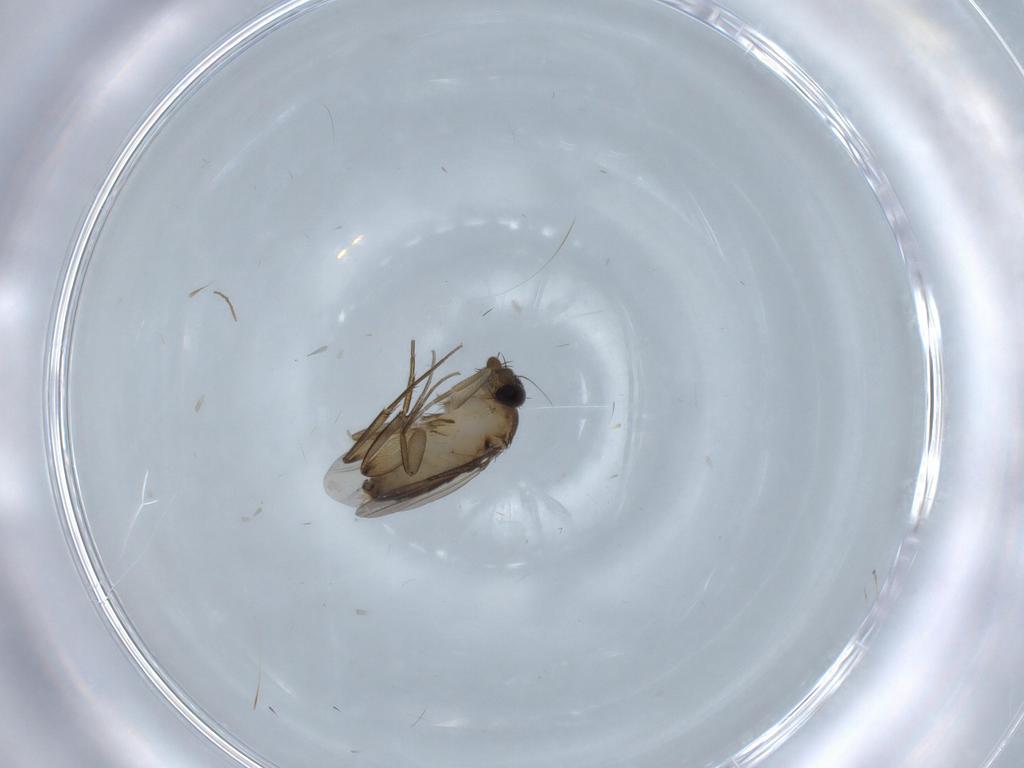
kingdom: Animalia
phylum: Arthropoda
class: Insecta
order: Diptera
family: Phoridae
